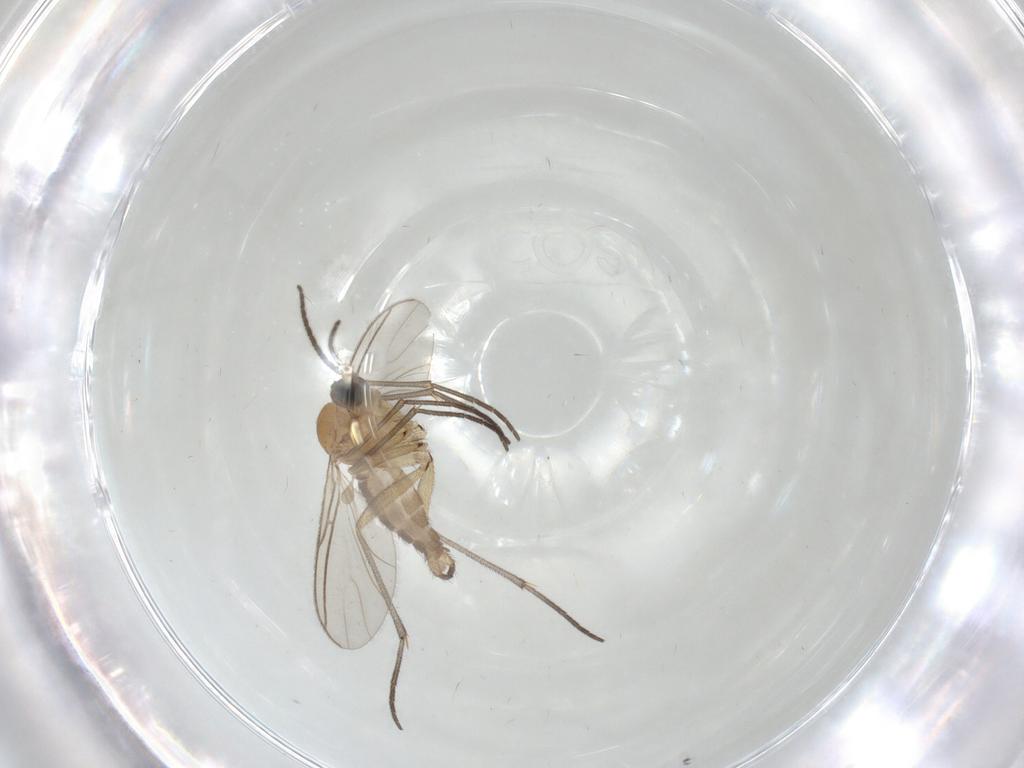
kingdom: Animalia
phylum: Arthropoda
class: Insecta
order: Diptera
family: Sciaridae
